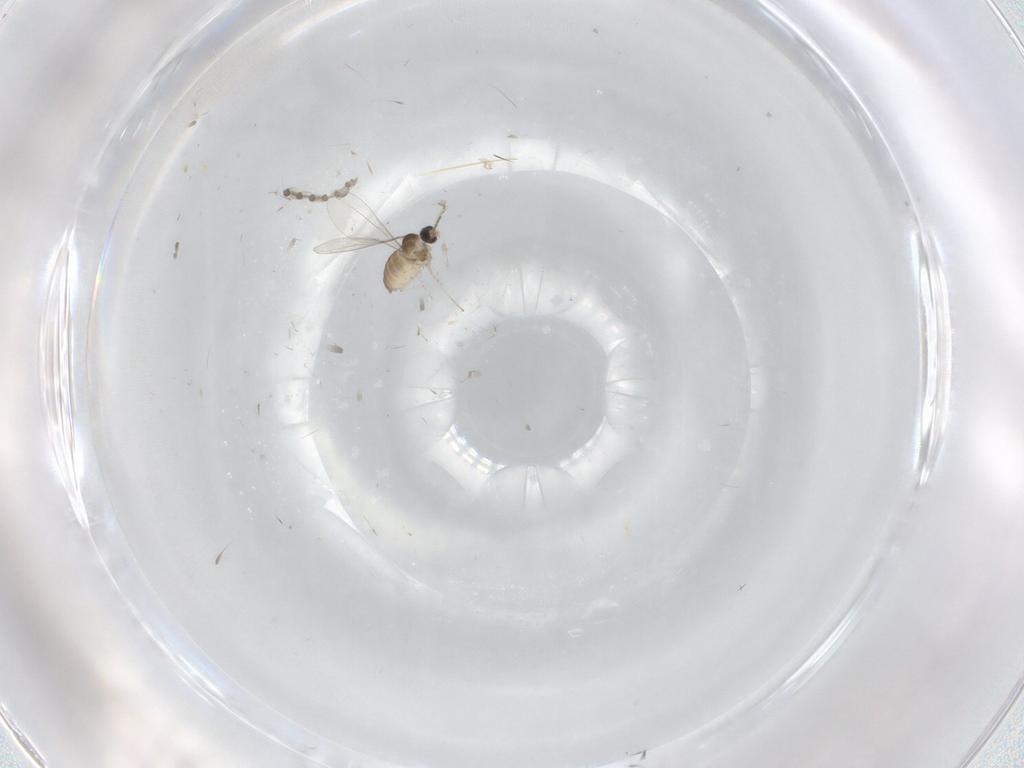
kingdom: Animalia
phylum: Arthropoda
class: Insecta
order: Diptera
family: Cecidomyiidae
